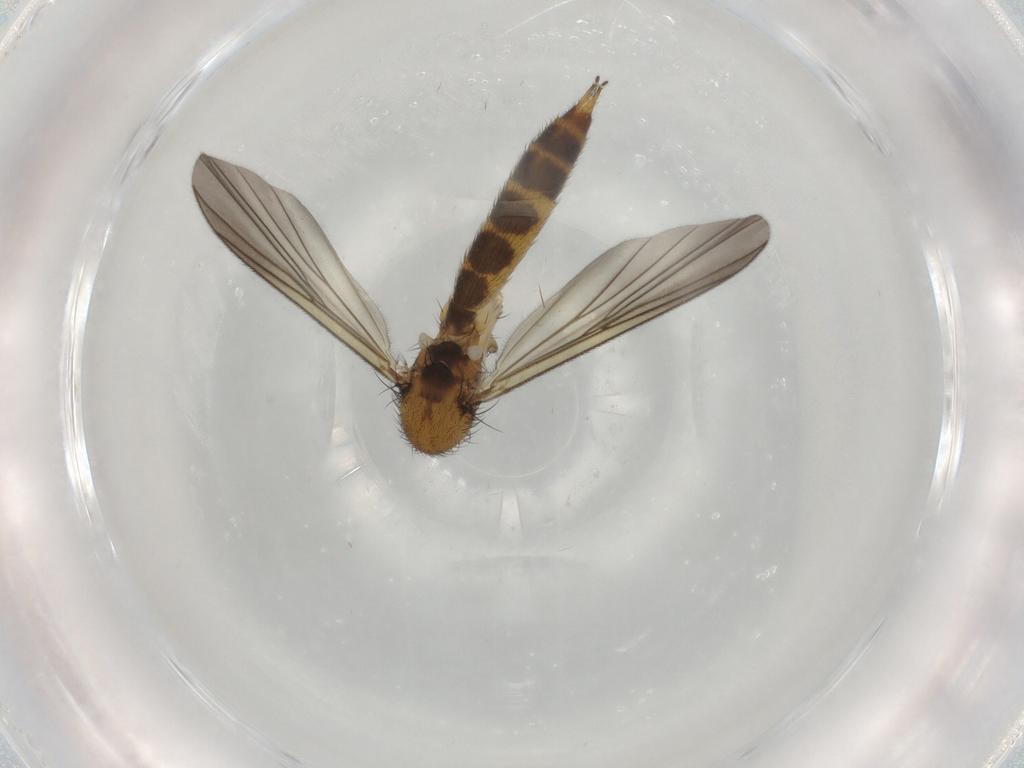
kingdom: Animalia
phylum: Arthropoda
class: Insecta
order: Diptera
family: Mycetophilidae
